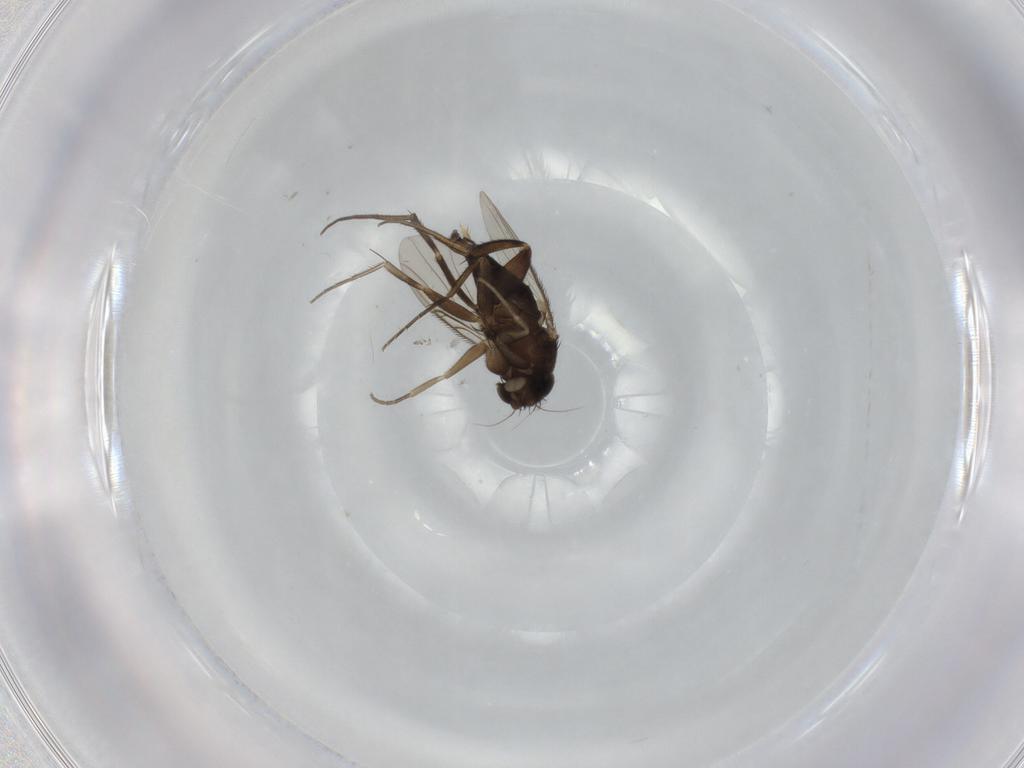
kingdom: Animalia
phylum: Arthropoda
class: Insecta
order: Diptera
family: Phoridae
